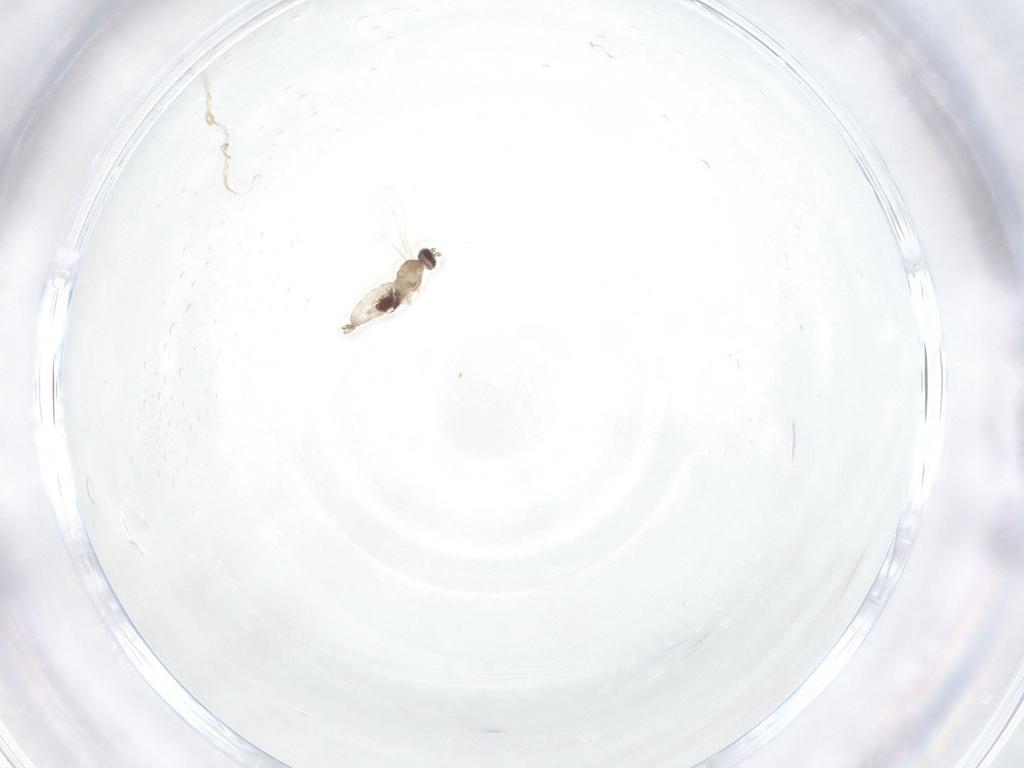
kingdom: Animalia
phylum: Arthropoda
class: Insecta
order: Diptera
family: Cecidomyiidae
